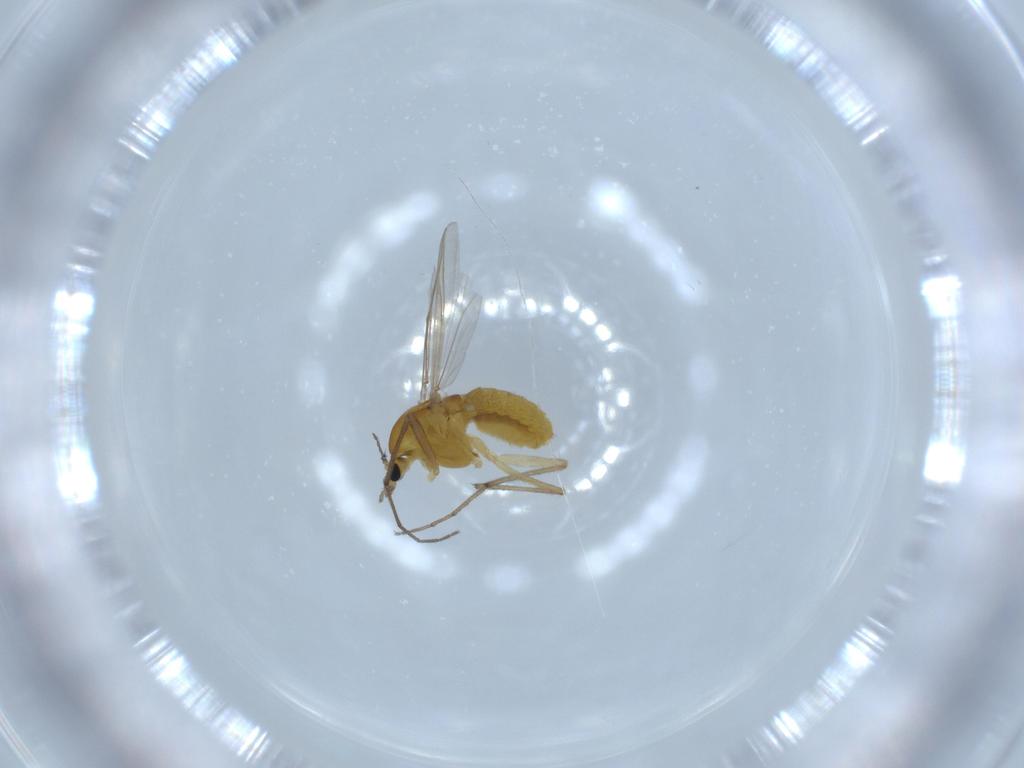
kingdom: Animalia
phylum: Arthropoda
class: Insecta
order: Diptera
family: Chironomidae
